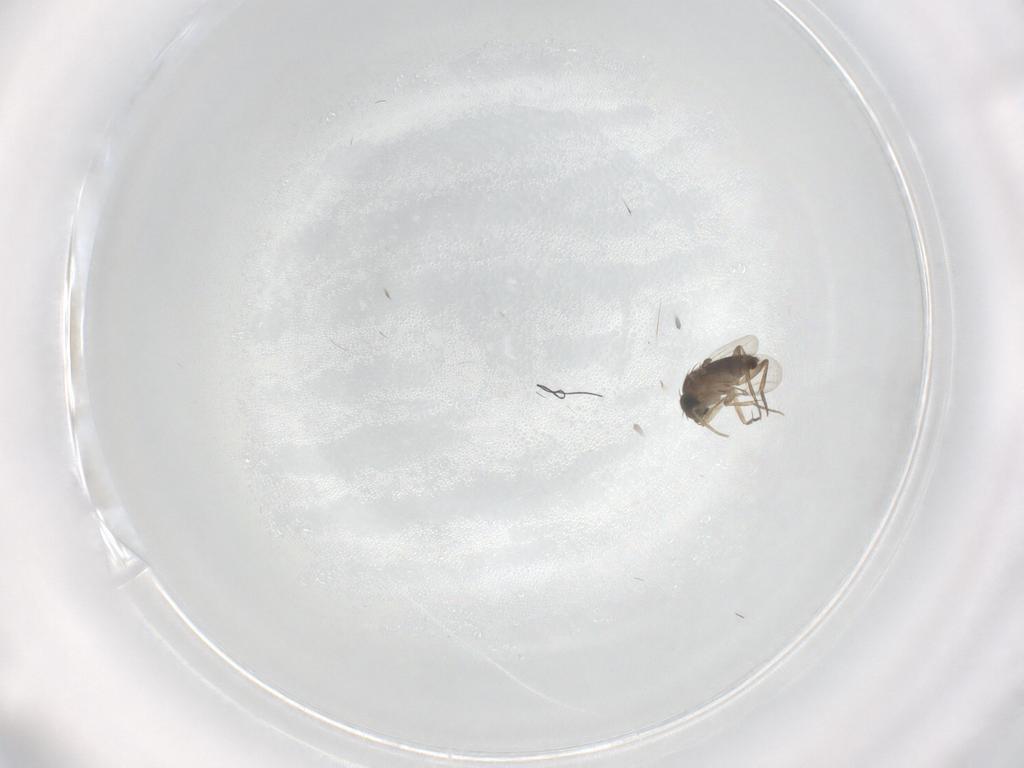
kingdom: Animalia
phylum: Arthropoda
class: Insecta
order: Diptera
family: Phoridae
